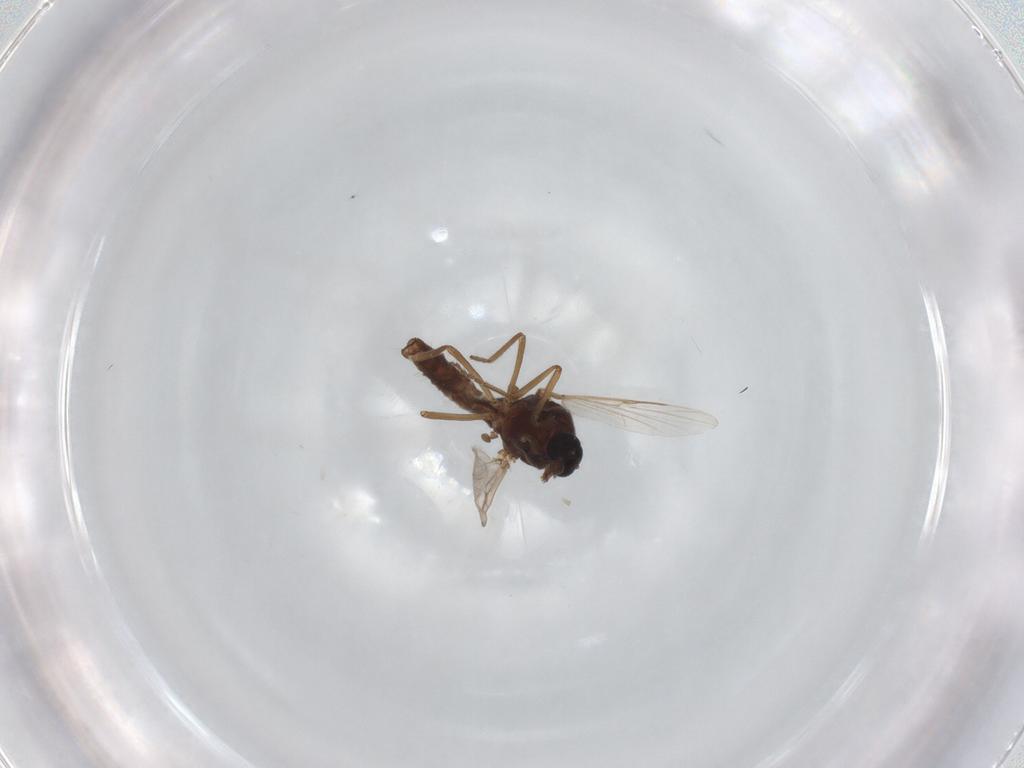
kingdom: Animalia
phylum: Arthropoda
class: Insecta
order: Diptera
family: Ceratopogonidae
